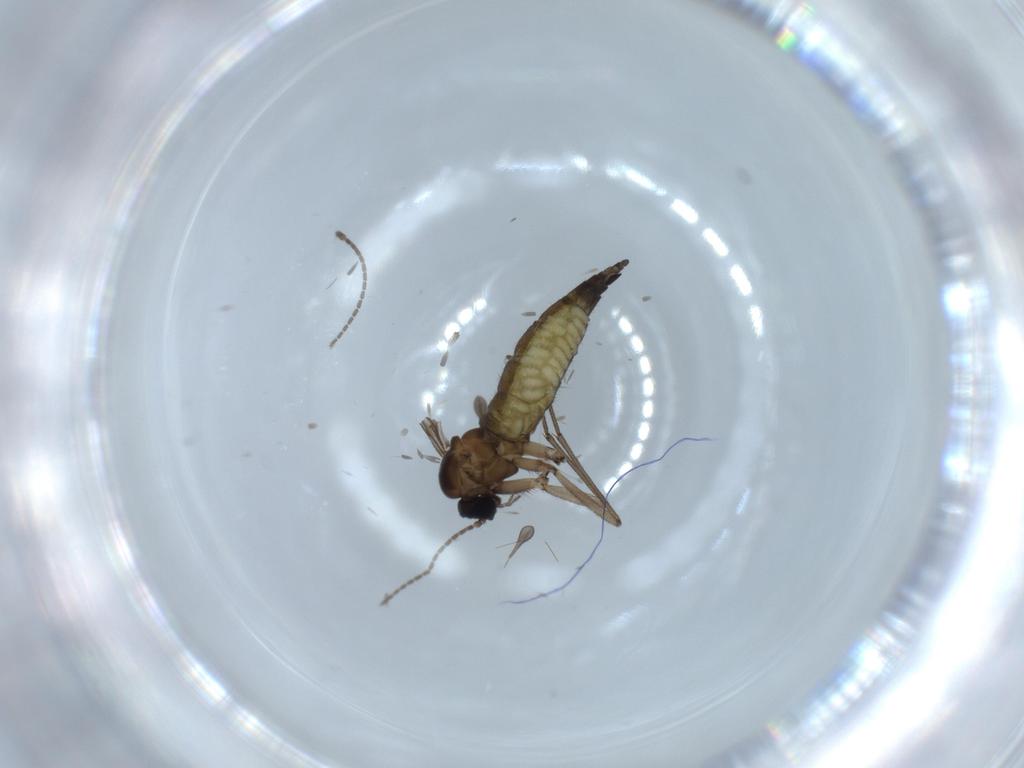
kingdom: Animalia
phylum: Arthropoda
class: Insecta
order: Diptera
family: Sciaridae
